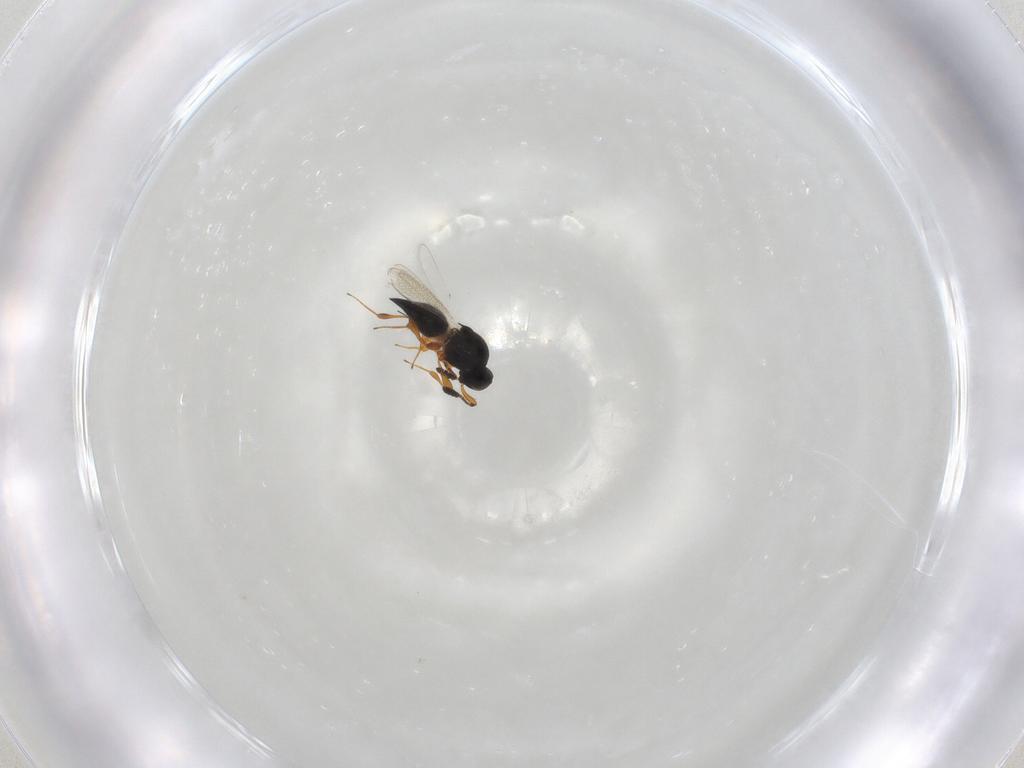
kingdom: Animalia
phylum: Arthropoda
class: Insecta
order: Hymenoptera
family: Platygastridae
